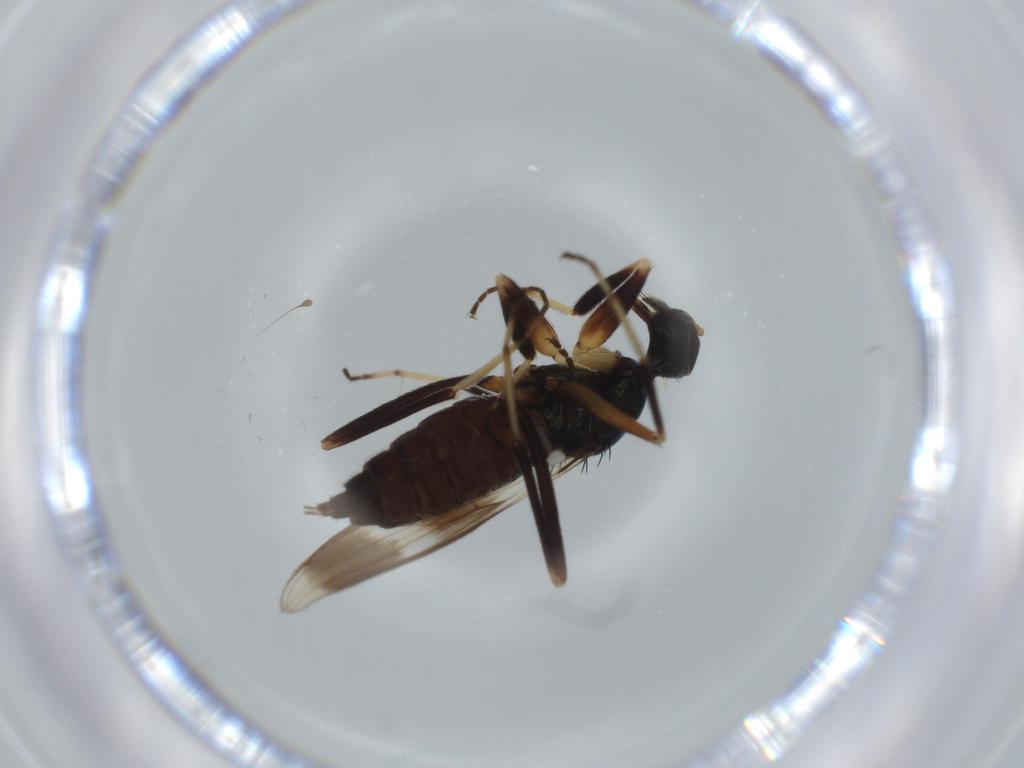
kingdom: Animalia
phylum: Arthropoda
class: Insecta
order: Diptera
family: Hybotidae
